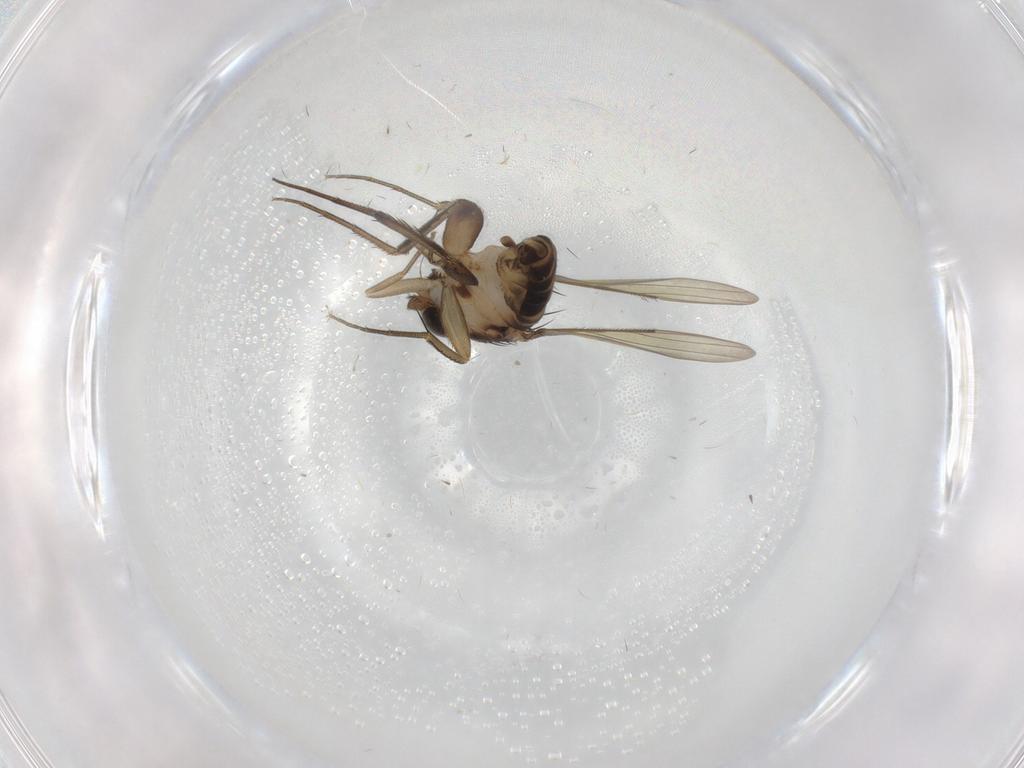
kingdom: Animalia
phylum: Arthropoda
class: Insecta
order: Diptera
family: Phoridae
